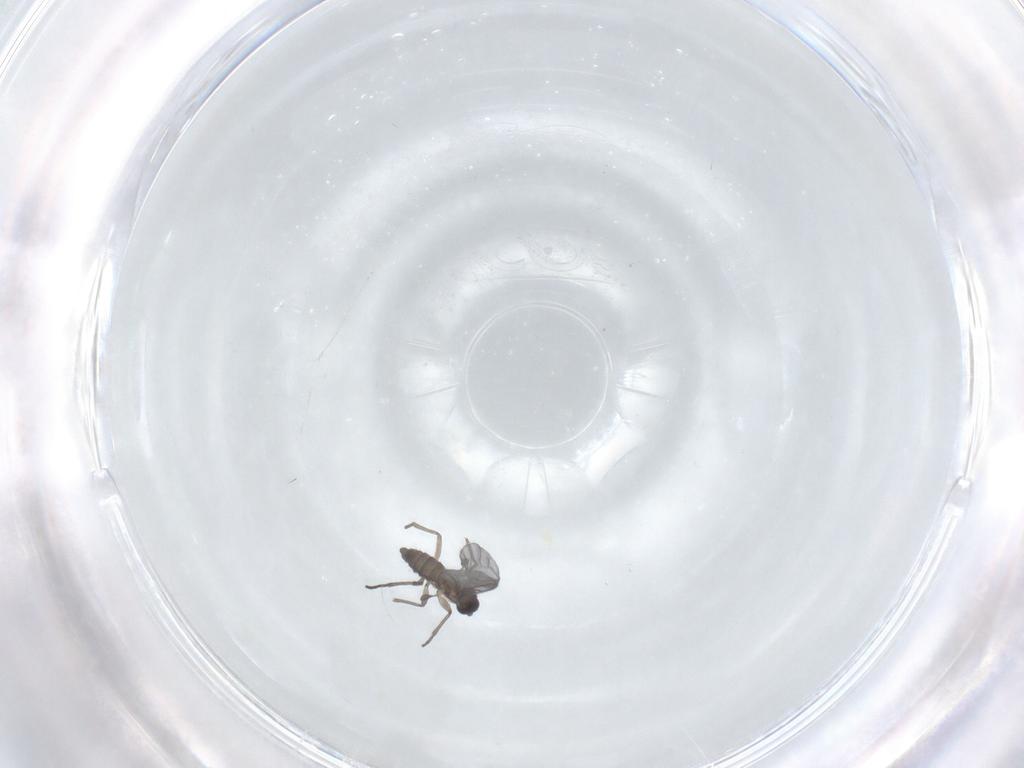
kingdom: Animalia
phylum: Arthropoda
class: Insecta
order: Diptera
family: Sciaridae
